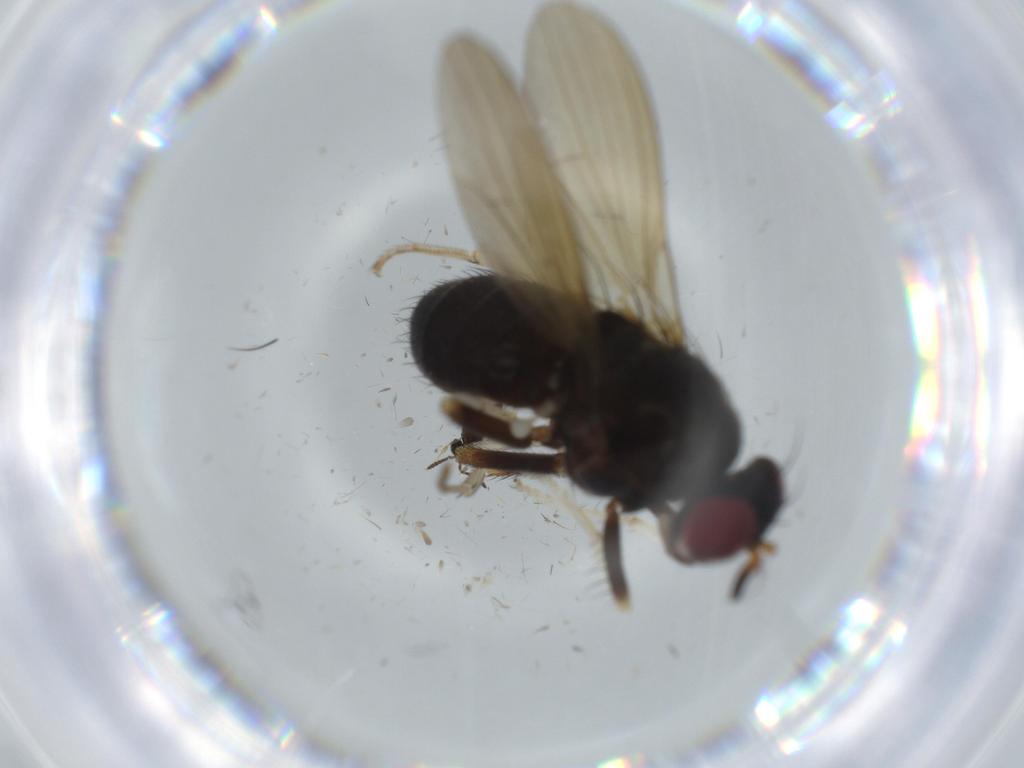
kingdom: Animalia
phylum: Arthropoda
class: Insecta
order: Diptera
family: Lauxaniidae
